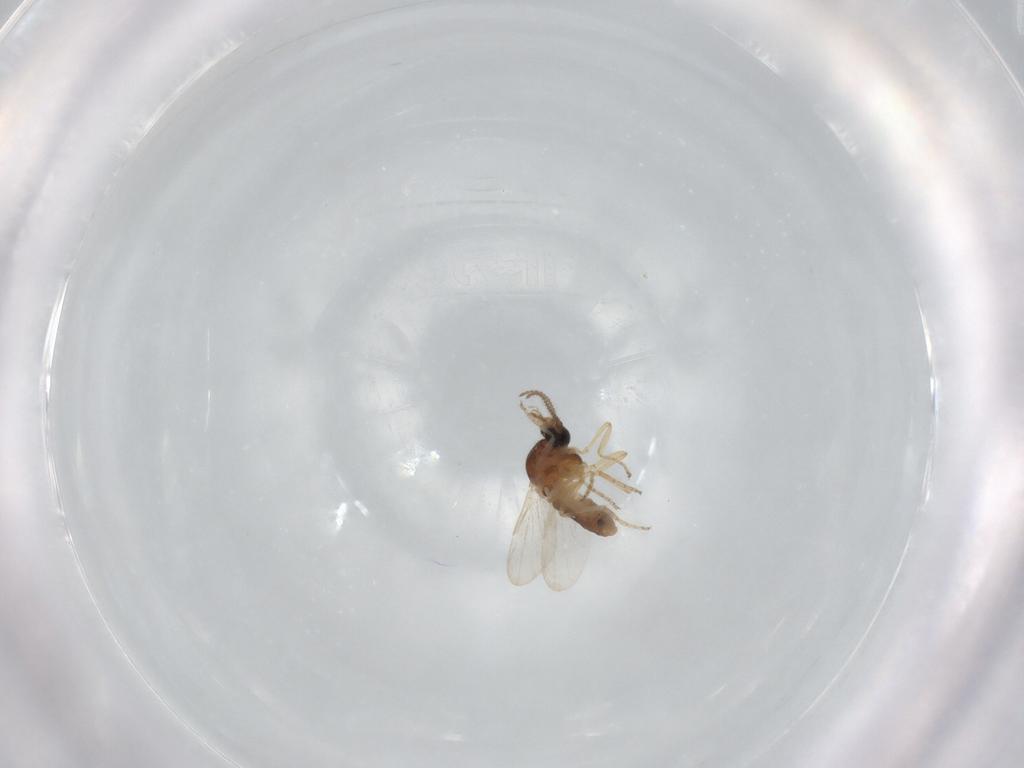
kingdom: Animalia
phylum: Arthropoda
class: Insecta
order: Diptera
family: Ceratopogonidae
